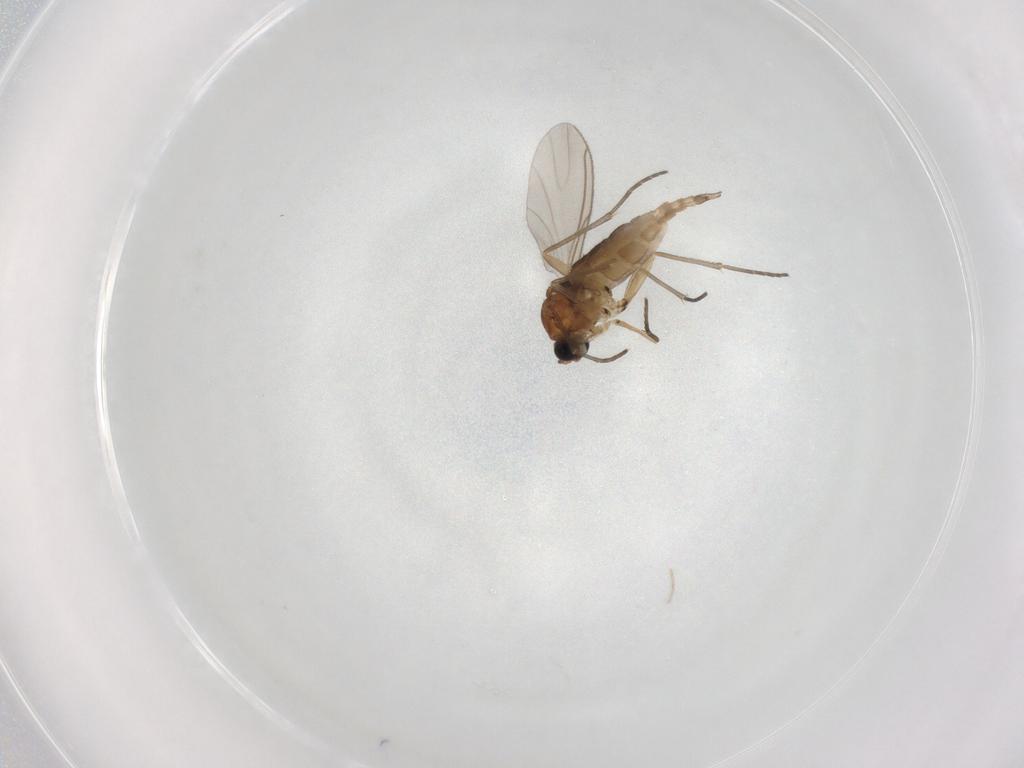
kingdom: Animalia
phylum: Arthropoda
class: Insecta
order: Diptera
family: Sciaridae
